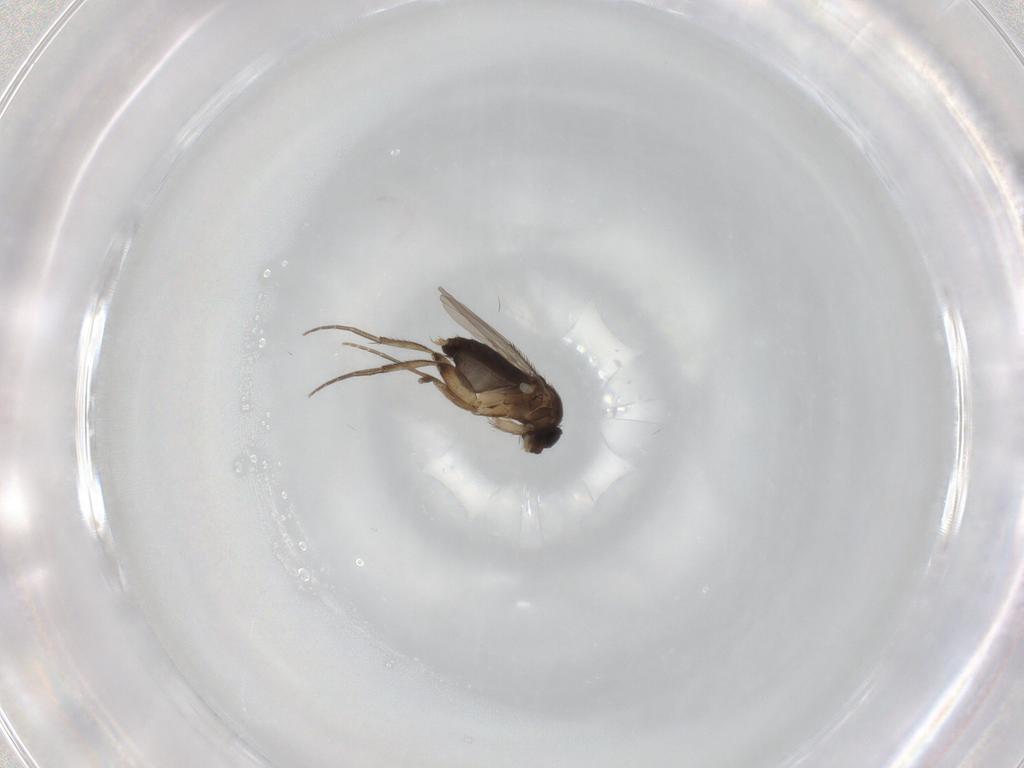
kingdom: Animalia
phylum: Arthropoda
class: Insecta
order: Diptera
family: Phoridae
